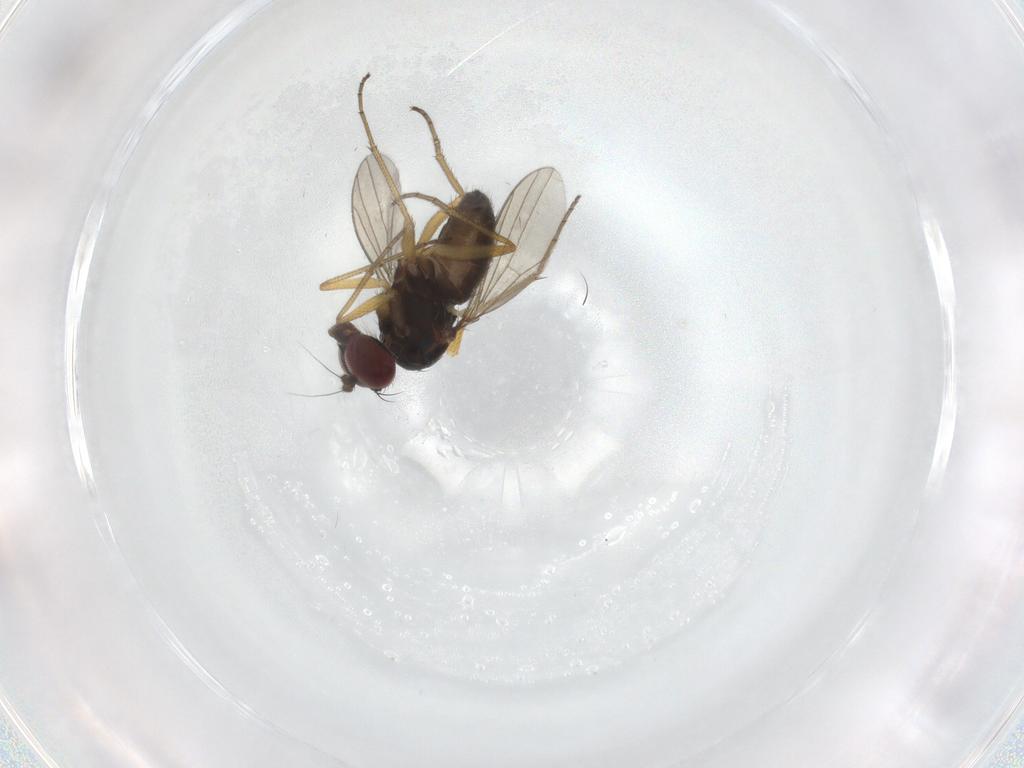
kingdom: Animalia
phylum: Arthropoda
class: Insecta
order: Diptera
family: Dolichopodidae
